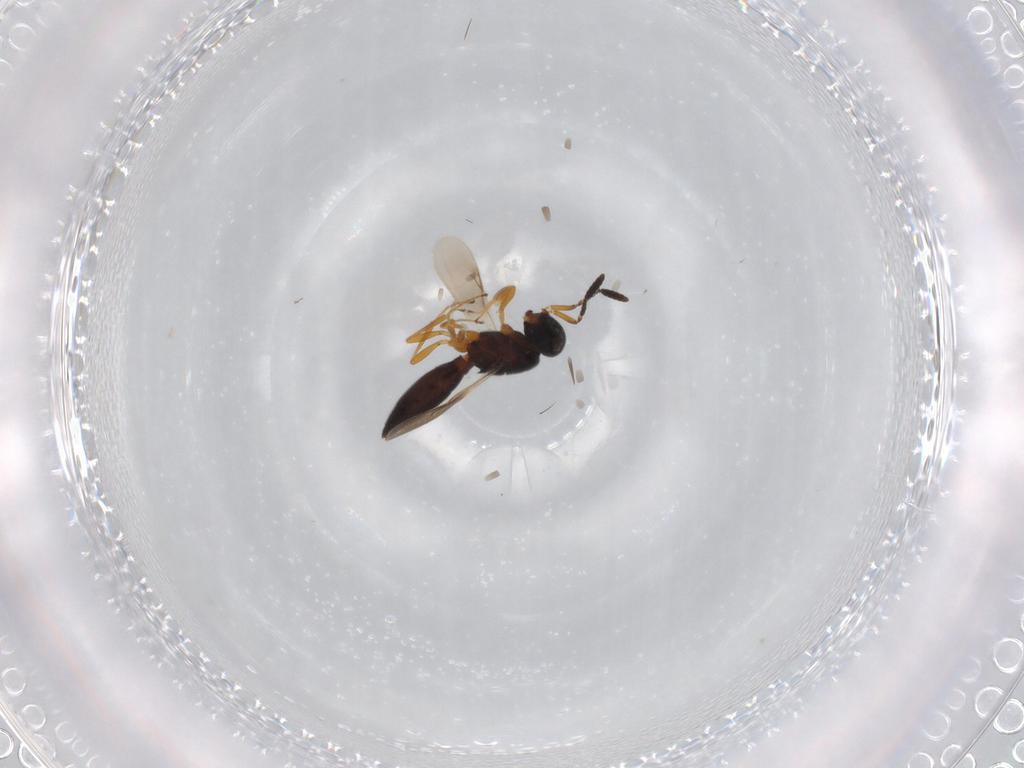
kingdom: Animalia
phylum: Arthropoda
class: Insecta
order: Hymenoptera
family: Scelionidae
